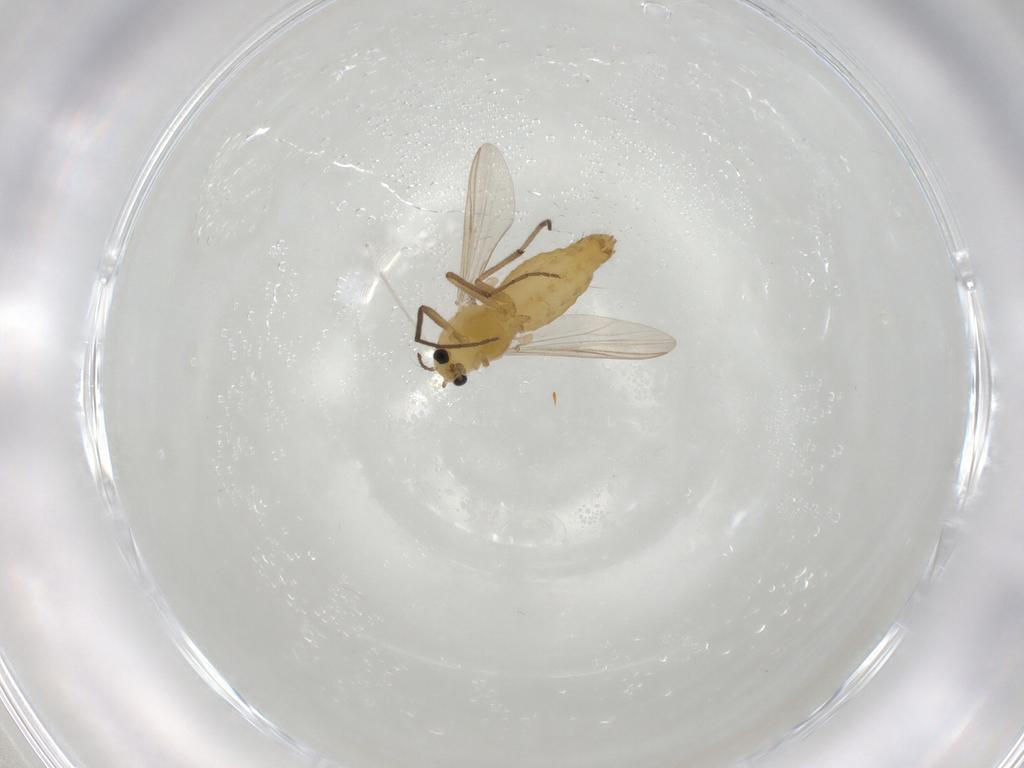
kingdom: Animalia
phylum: Arthropoda
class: Insecta
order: Diptera
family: Chironomidae
